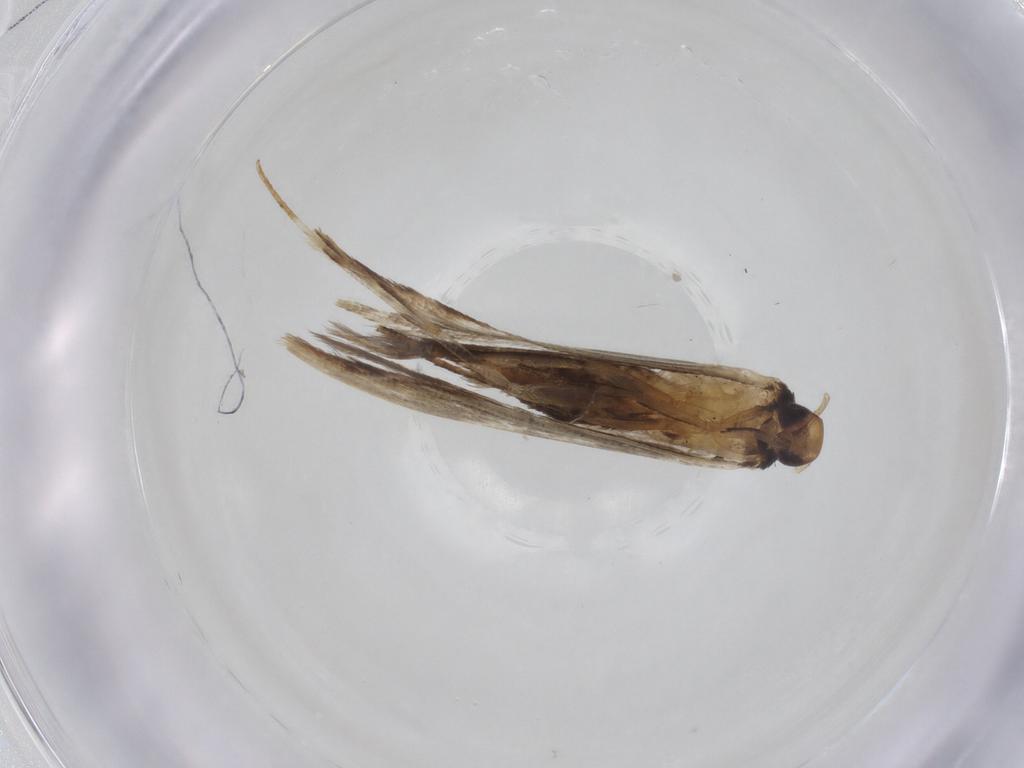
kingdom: Animalia
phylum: Arthropoda
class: Insecta
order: Lepidoptera
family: Gelechiidae
